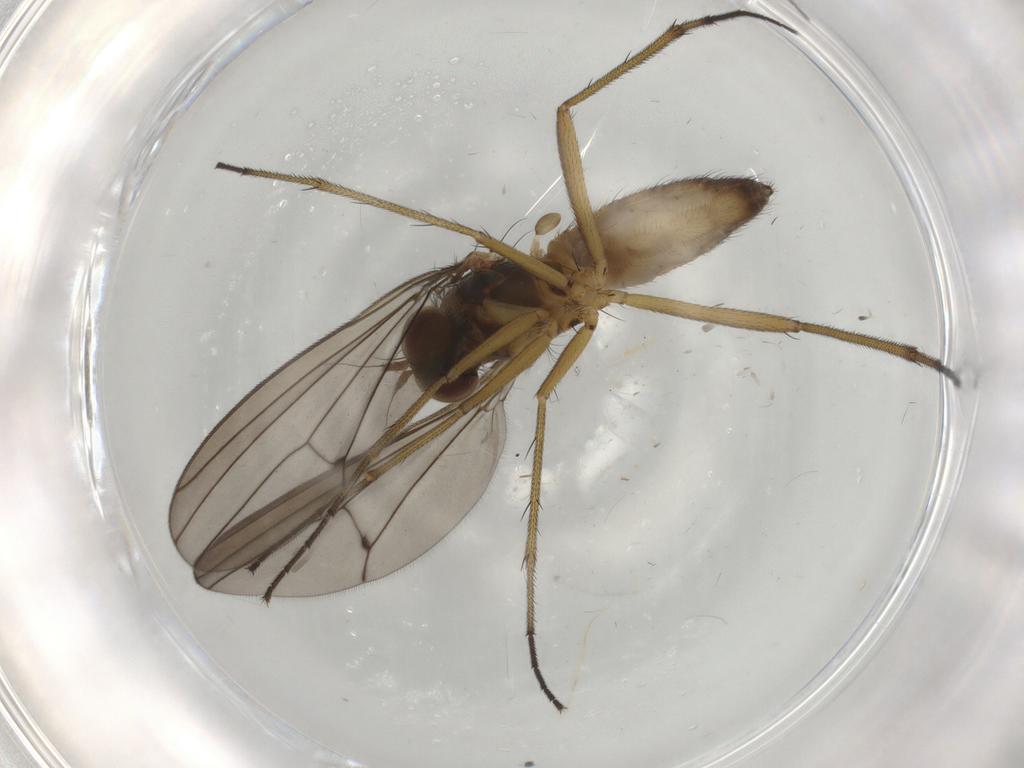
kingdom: Animalia
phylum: Arthropoda
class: Insecta
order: Diptera
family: Dolichopodidae
